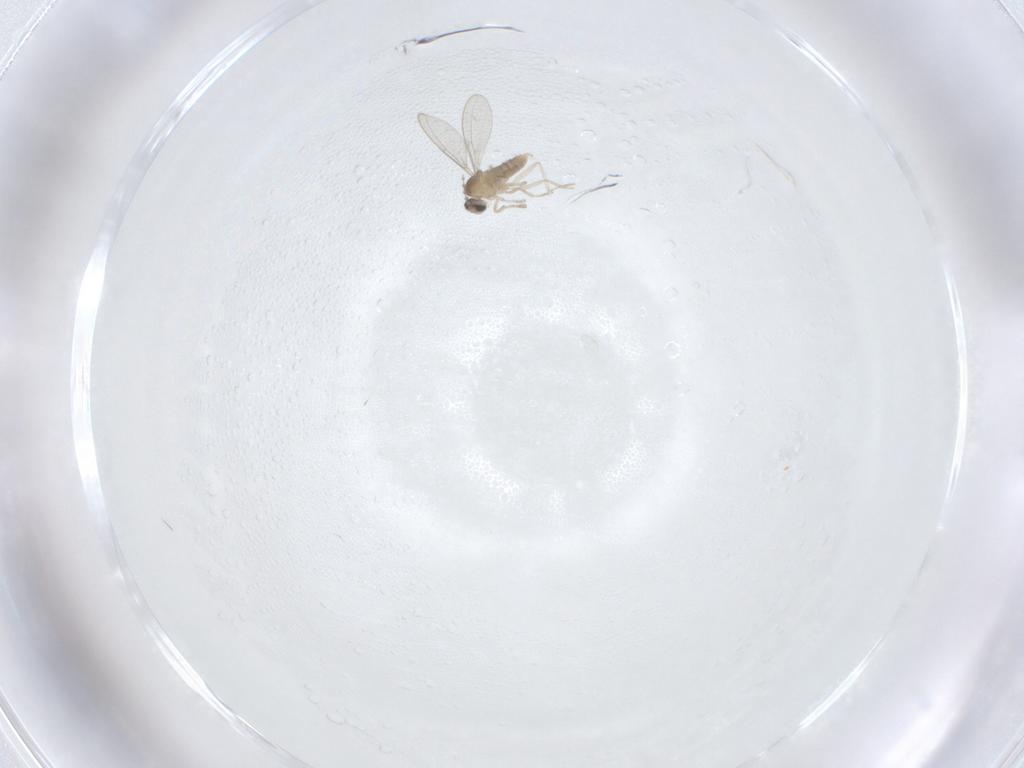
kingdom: Animalia
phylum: Arthropoda
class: Insecta
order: Diptera
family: Cecidomyiidae
